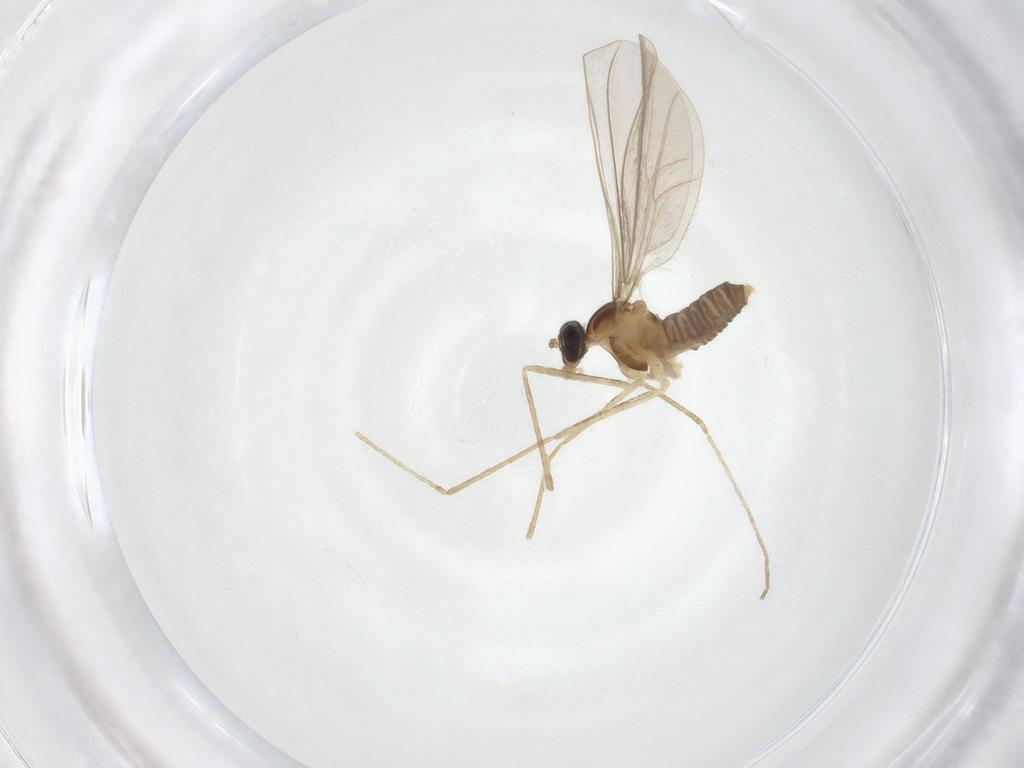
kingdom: Animalia
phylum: Arthropoda
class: Insecta
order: Diptera
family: Cecidomyiidae
